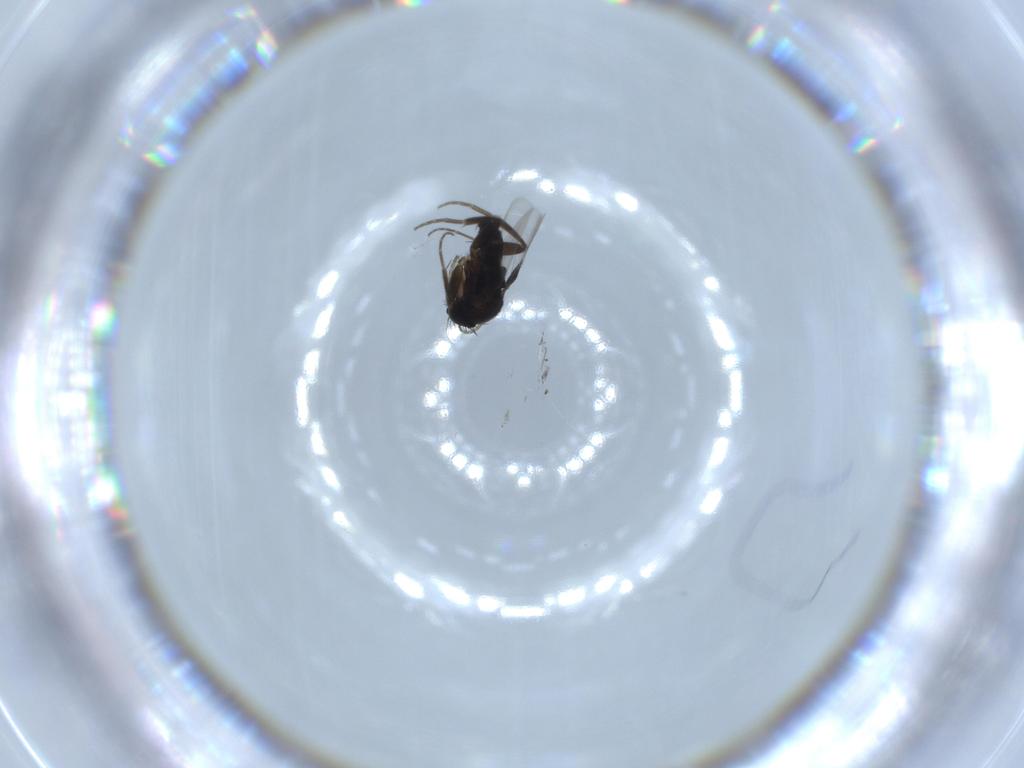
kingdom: Animalia
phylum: Arthropoda
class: Insecta
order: Diptera
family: Phoridae
